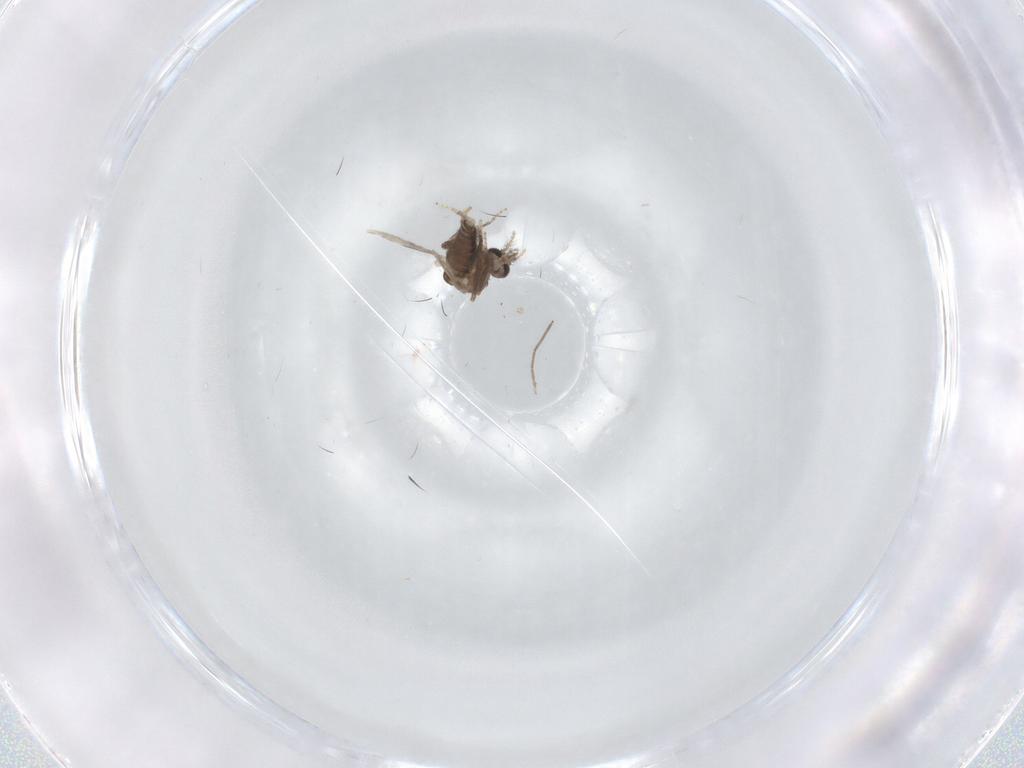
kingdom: Animalia
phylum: Arthropoda
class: Insecta
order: Diptera
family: Ceratopogonidae
